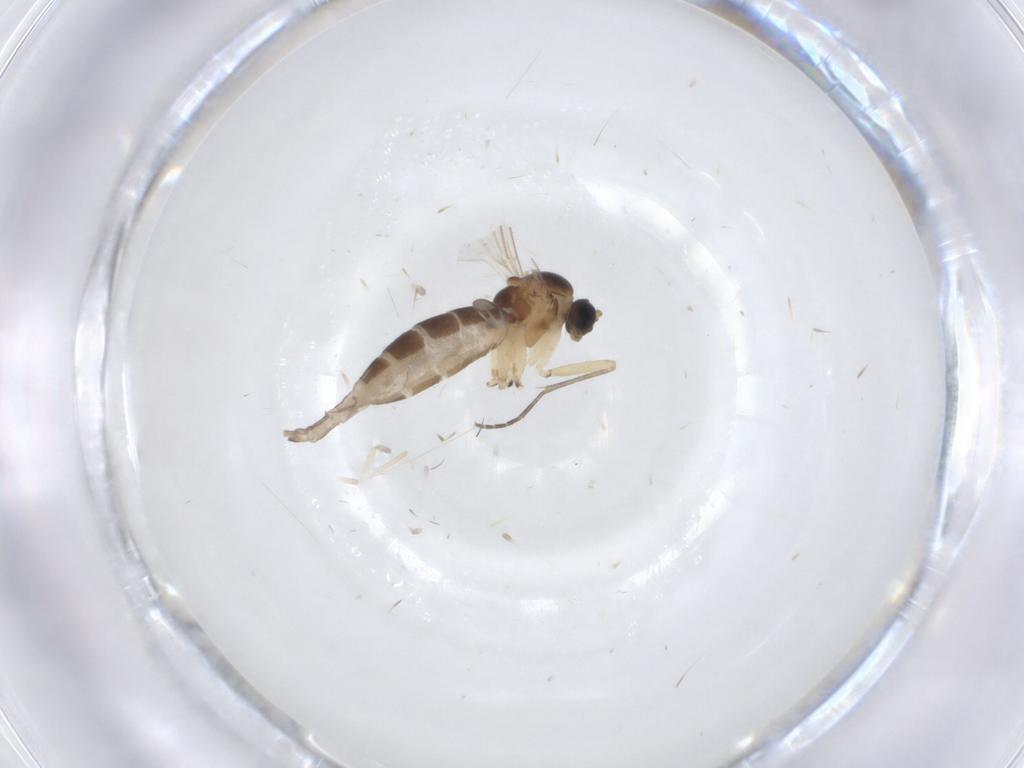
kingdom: Animalia
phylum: Arthropoda
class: Insecta
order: Diptera
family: Sciaridae
